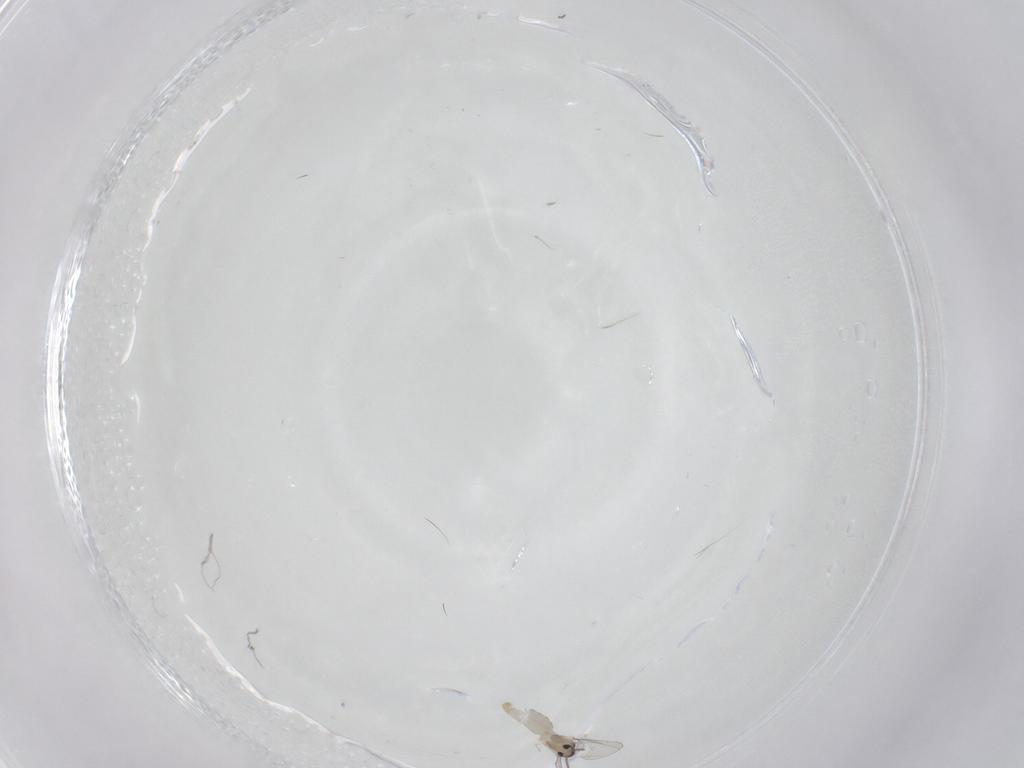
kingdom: Animalia
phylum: Arthropoda
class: Insecta
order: Diptera
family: Cecidomyiidae
